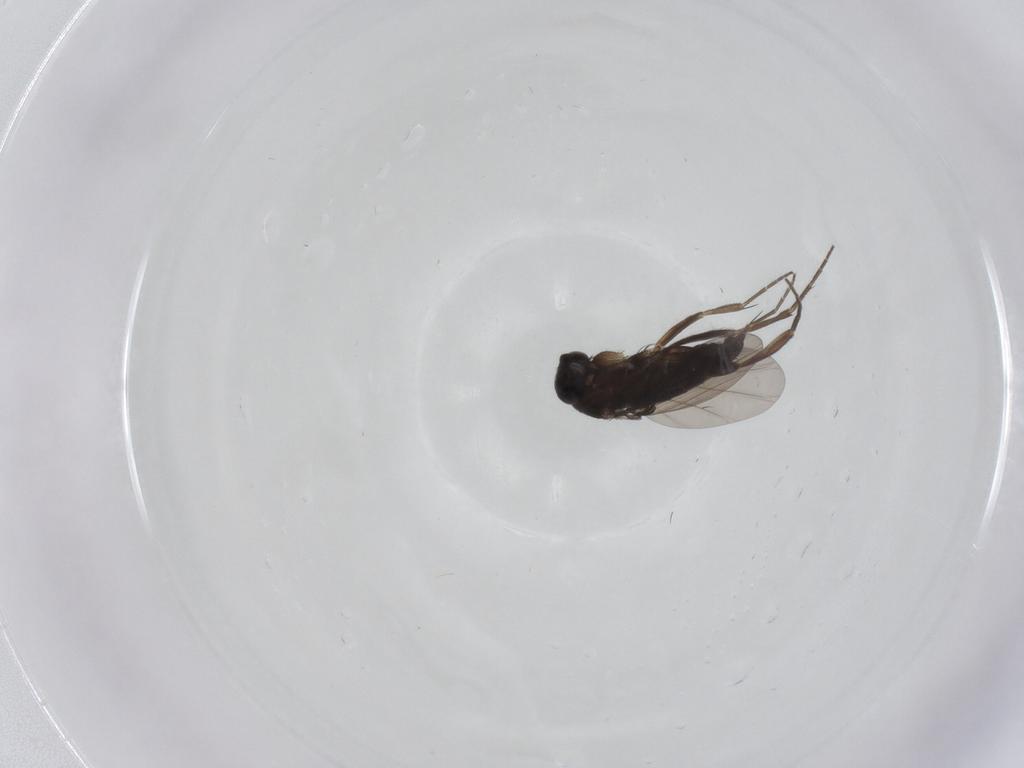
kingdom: Animalia
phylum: Arthropoda
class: Insecta
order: Diptera
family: Phoridae
